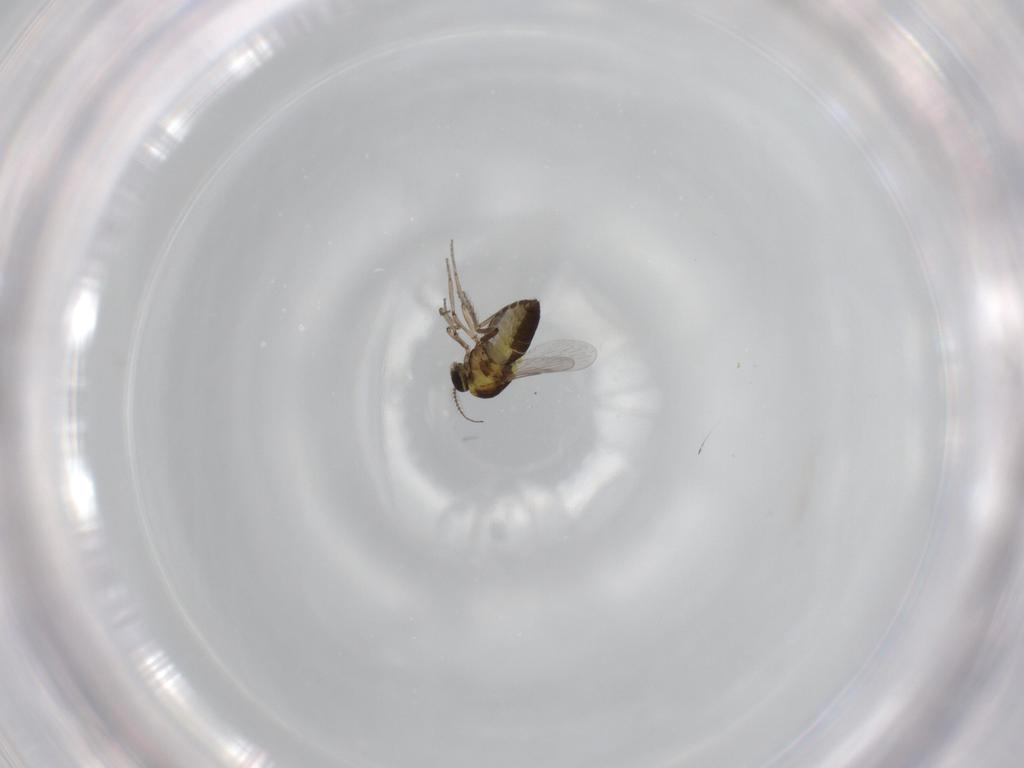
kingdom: Animalia
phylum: Arthropoda
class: Insecta
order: Diptera
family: Ceratopogonidae
